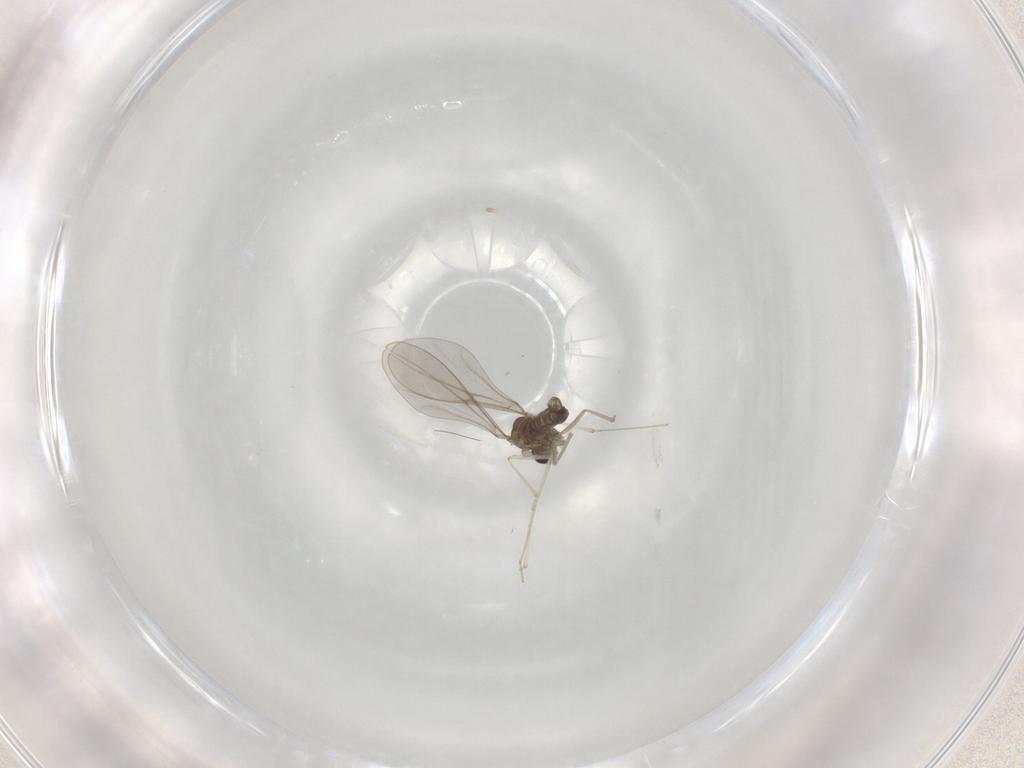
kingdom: Animalia
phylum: Arthropoda
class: Insecta
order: Diptera
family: Cecidomyiidae
